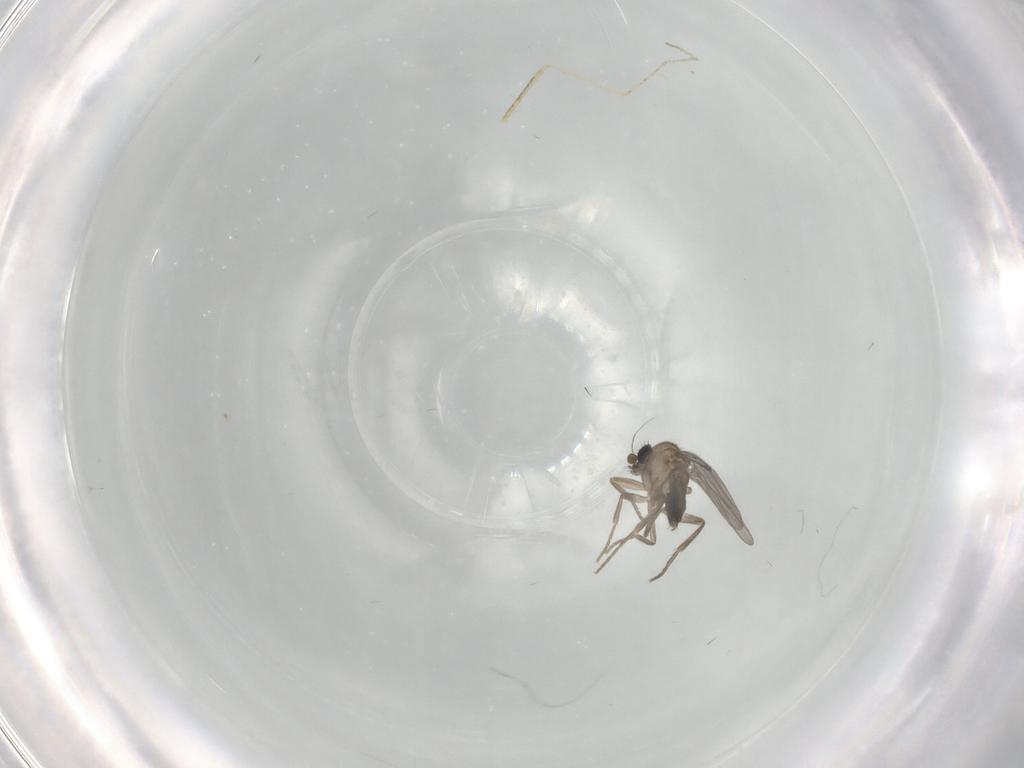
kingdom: Animalia
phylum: Arthropoda
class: Insecta
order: Diptera
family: Phoridae
